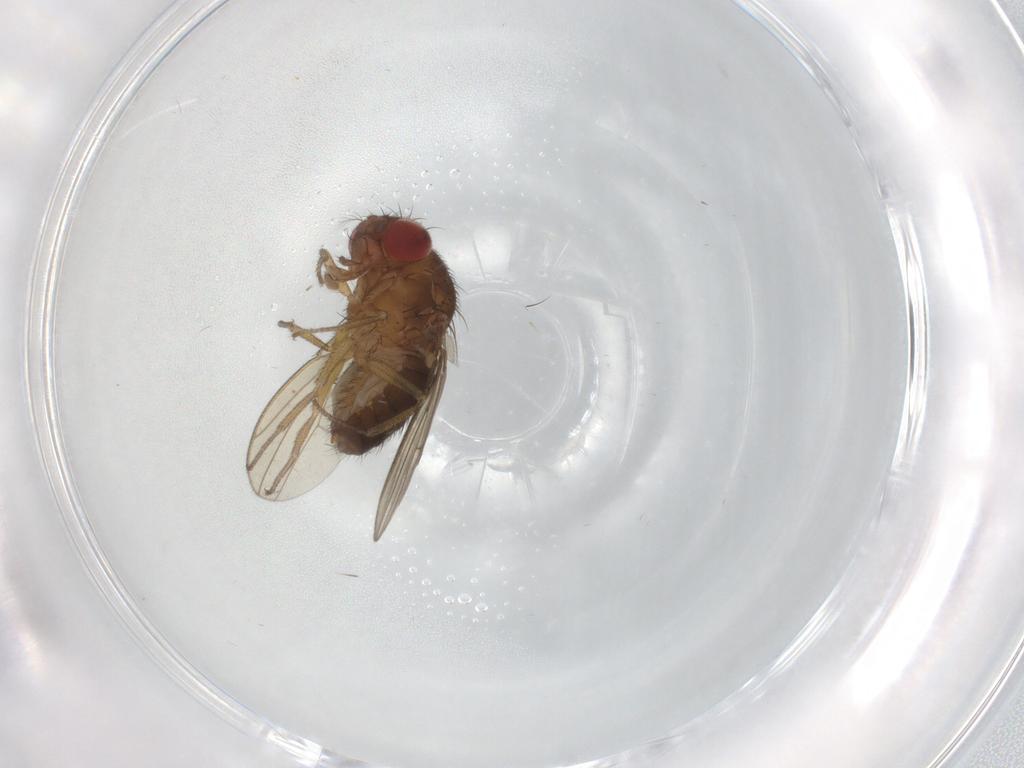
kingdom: Animalia
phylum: Arthropoda
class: Insecta
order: Diptera
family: Drosophilidae
